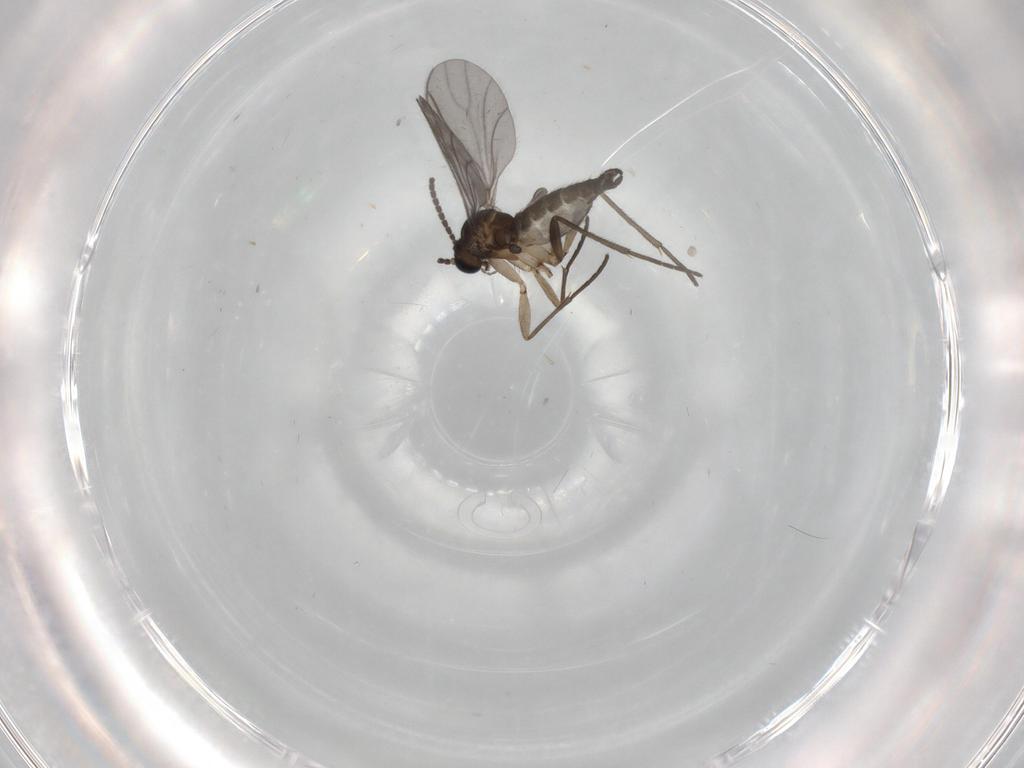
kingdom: Animalia
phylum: Arthropoda
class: Insecta
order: Diptera
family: Sciaridae
